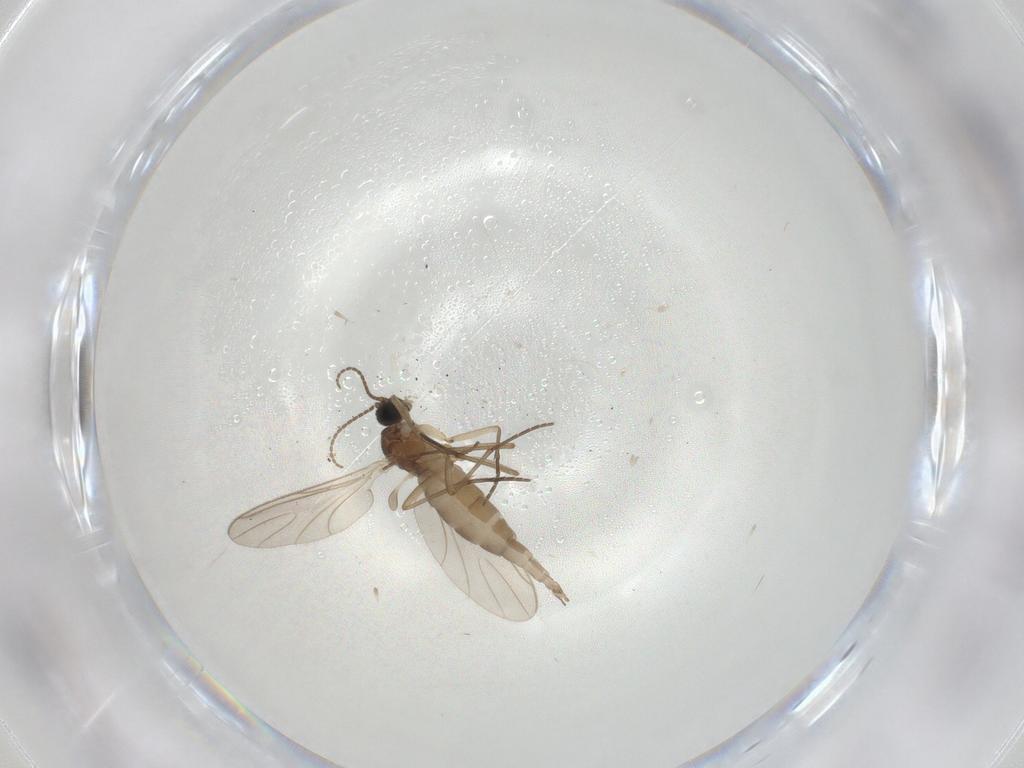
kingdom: Animalia
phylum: Arthropoda
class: Insecta
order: Diptera
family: Sciaridae
